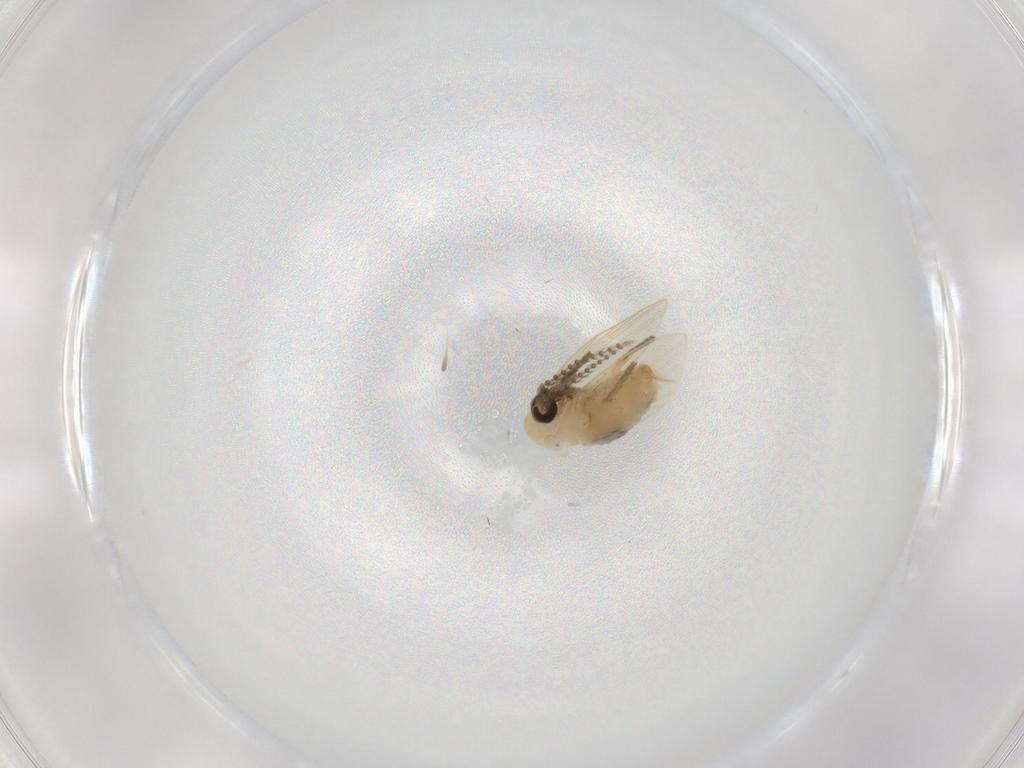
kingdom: Animalia
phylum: Arthropoda
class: Insecta
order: Diptera
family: Psychodidae
